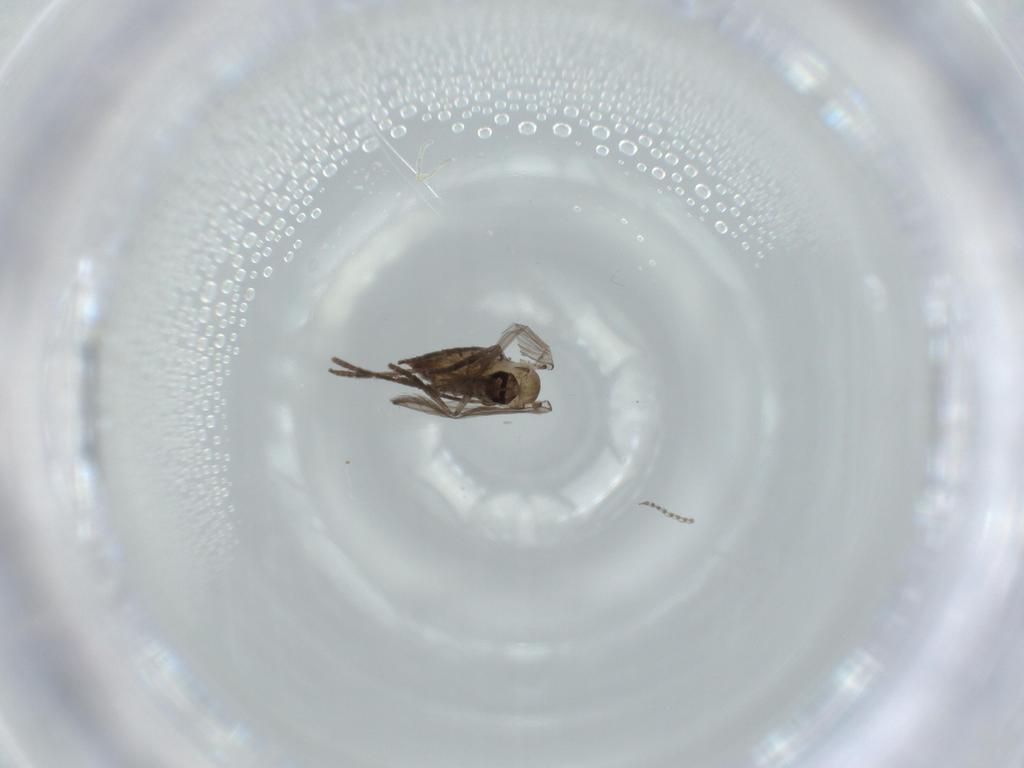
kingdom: Animalia
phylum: Arthropoda
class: Insecta
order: Diptera
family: Psychodidae
